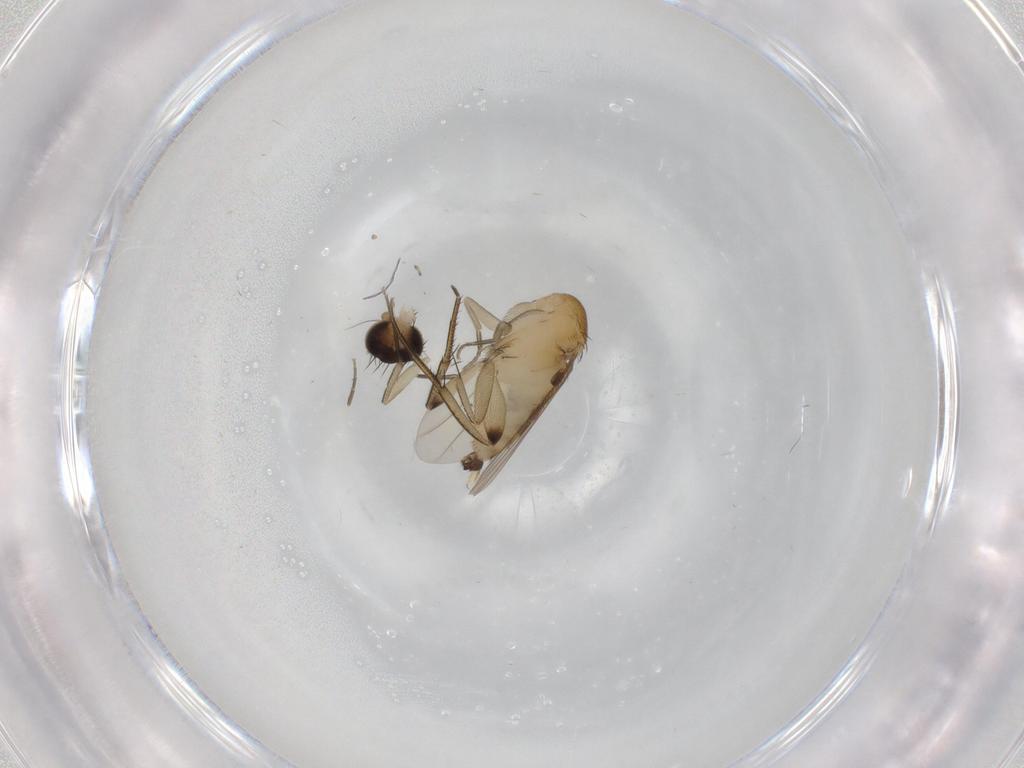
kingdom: Animalia
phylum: Arthropoda
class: Insecta
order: Diptera
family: Phoridae
